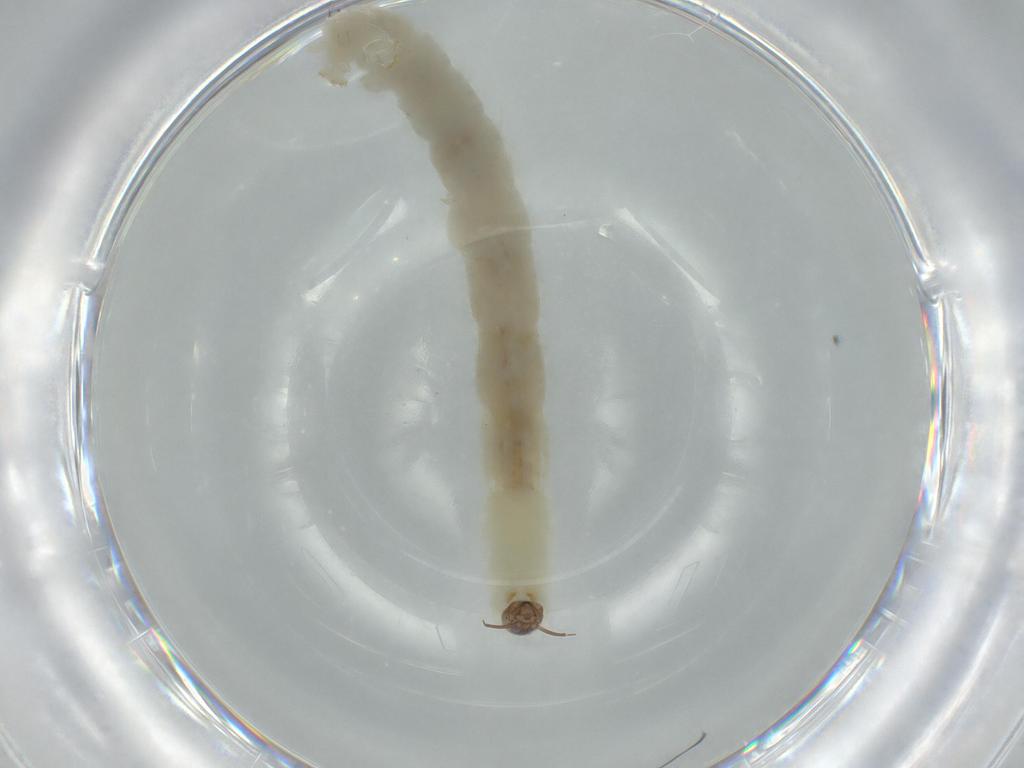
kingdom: Animalia
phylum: Arthropoda
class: Insecta
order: Diptera
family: Chironomidae
